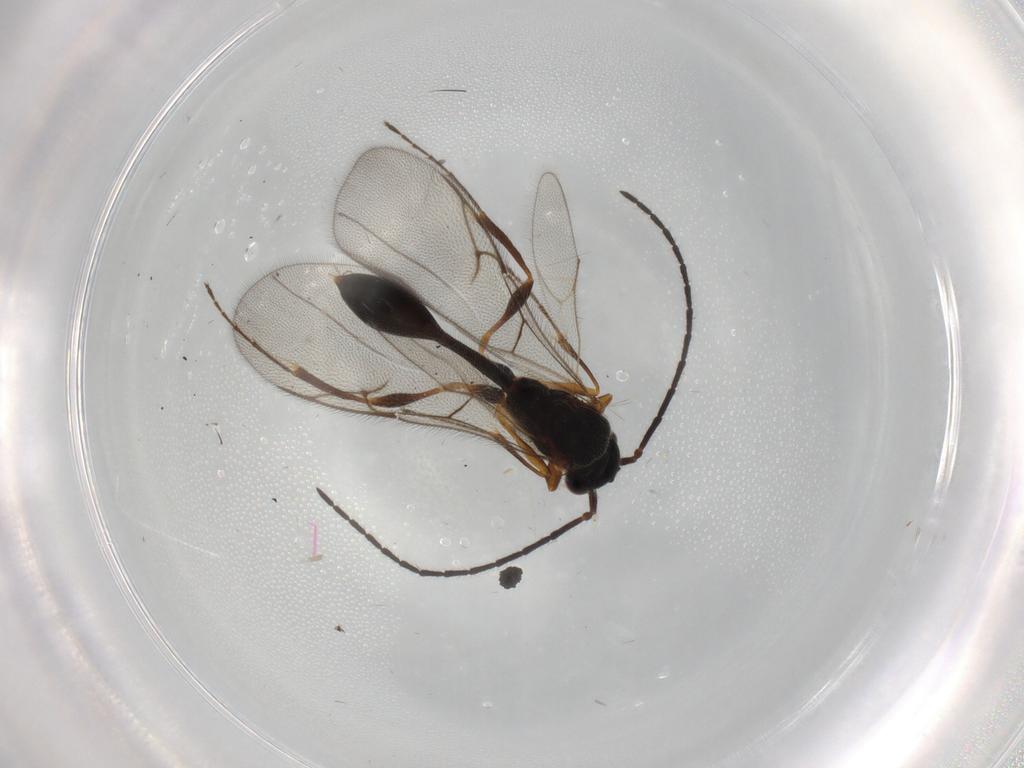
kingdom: Animalia
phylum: Arthropoda
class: Insecta
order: Hymenoptera
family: Diapriidae
